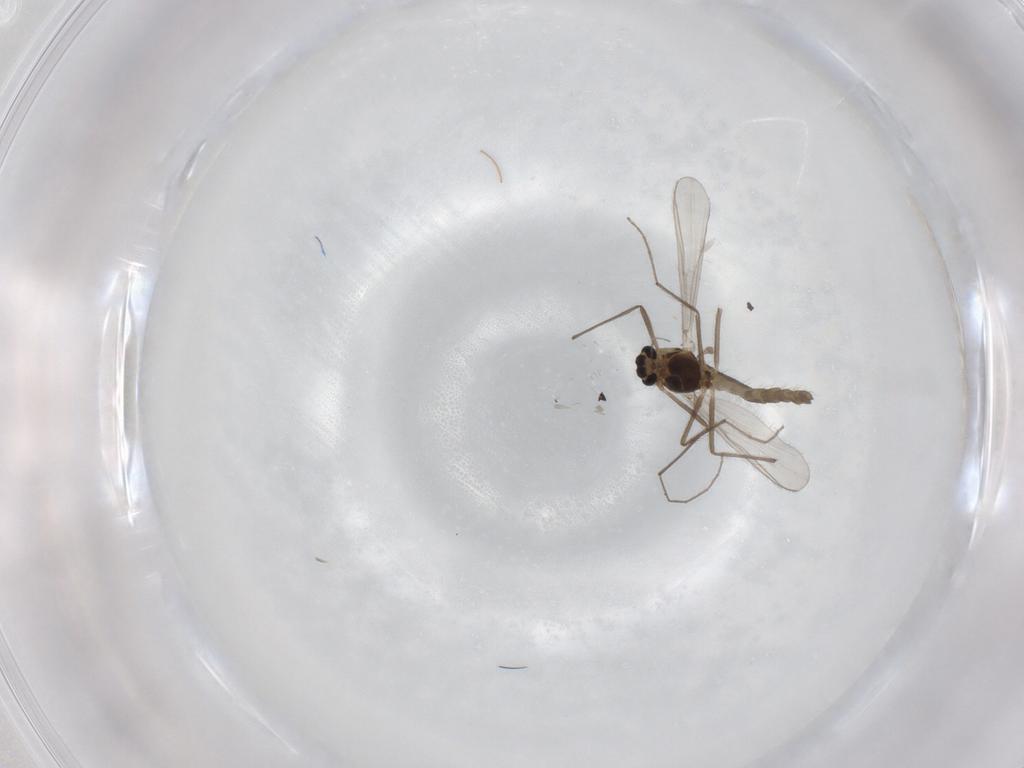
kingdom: Animalia
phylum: Arthropoda
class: Insecta
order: Diptera
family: Chironomidae
